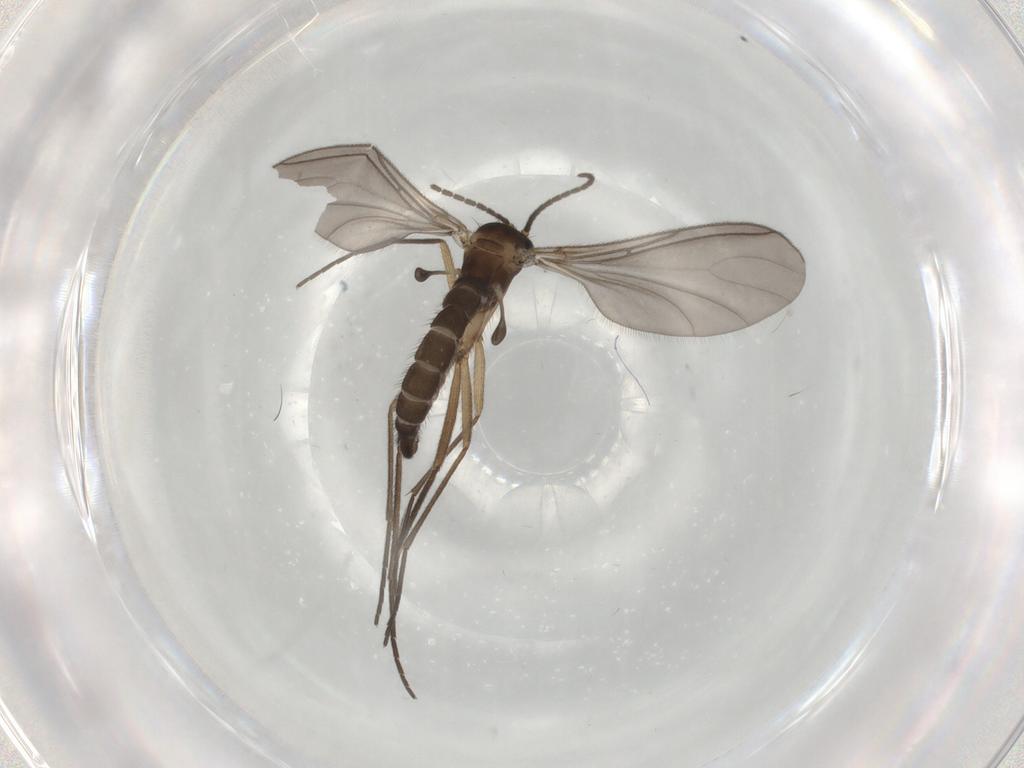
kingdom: Animalia
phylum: Arthropoda
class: Insecta
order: Diptera
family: Sciaridae
